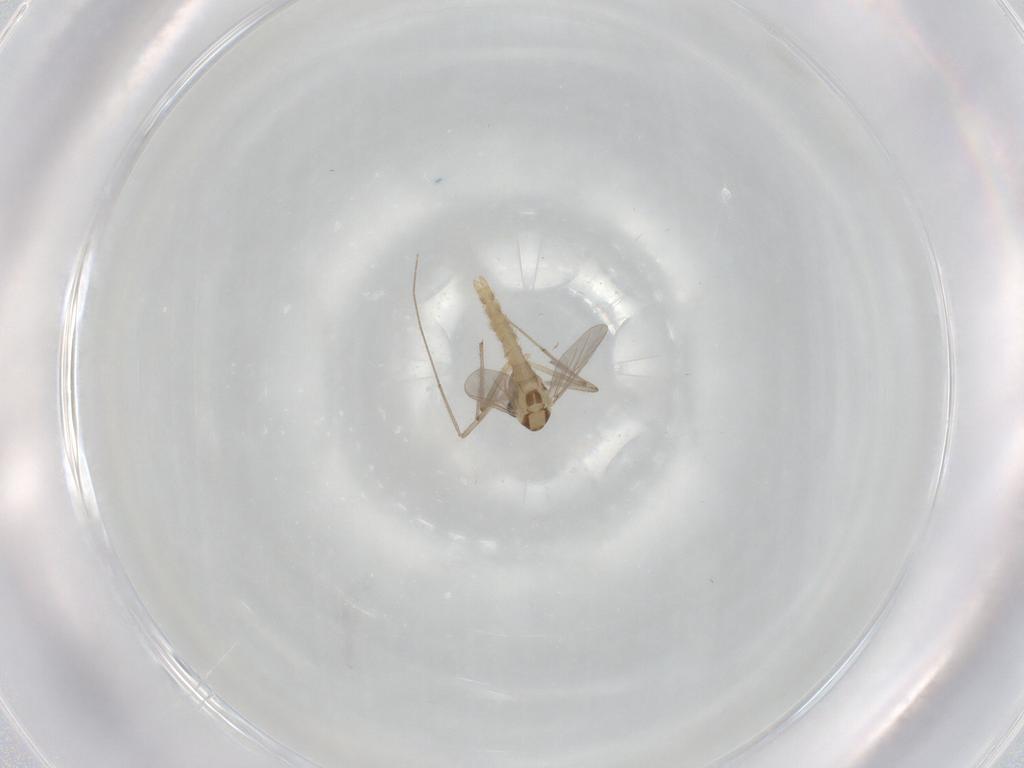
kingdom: Animalia
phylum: Arthropoda
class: Insecta
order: Diptera
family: Chironomidae
